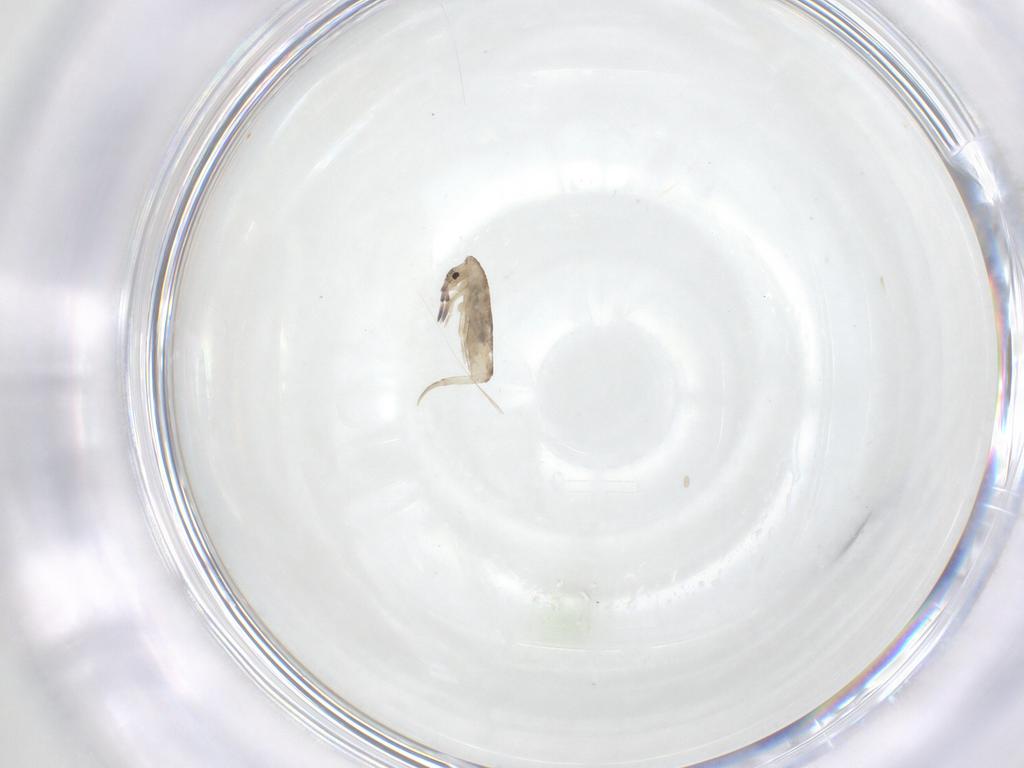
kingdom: Animalia
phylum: Arthropoda
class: Collembola
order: Entomobryomorpha
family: Entomobryidae
